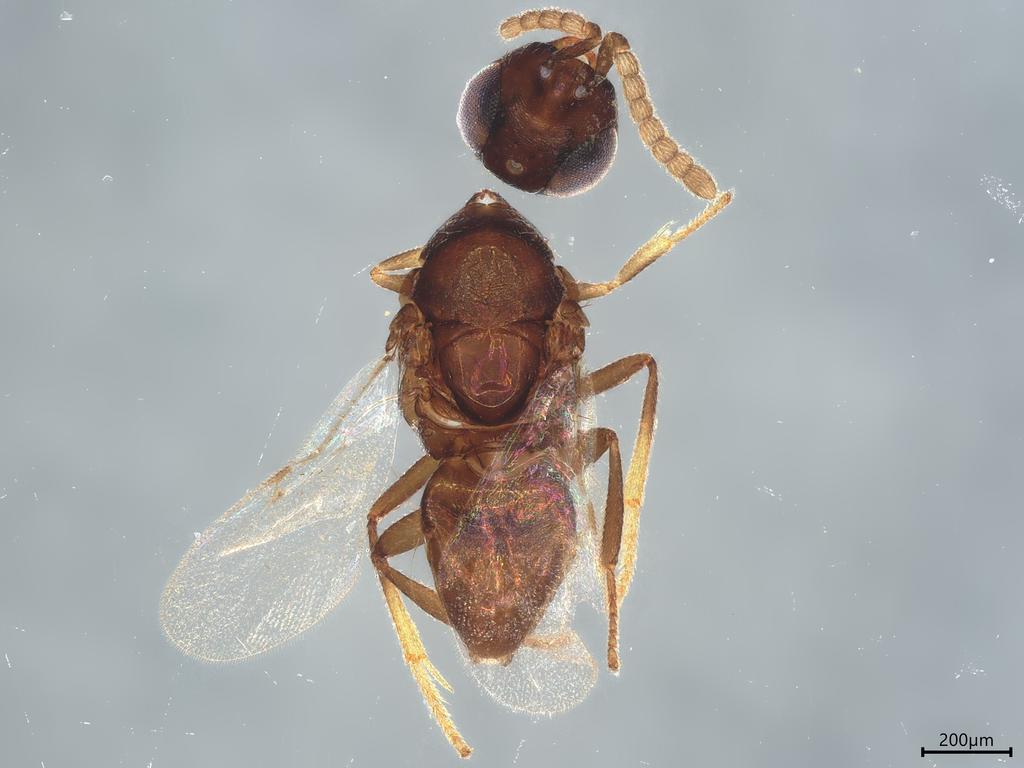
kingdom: Animalia
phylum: Arthropoda
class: Insecta
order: Hymenoptera
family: Encyrtidae
